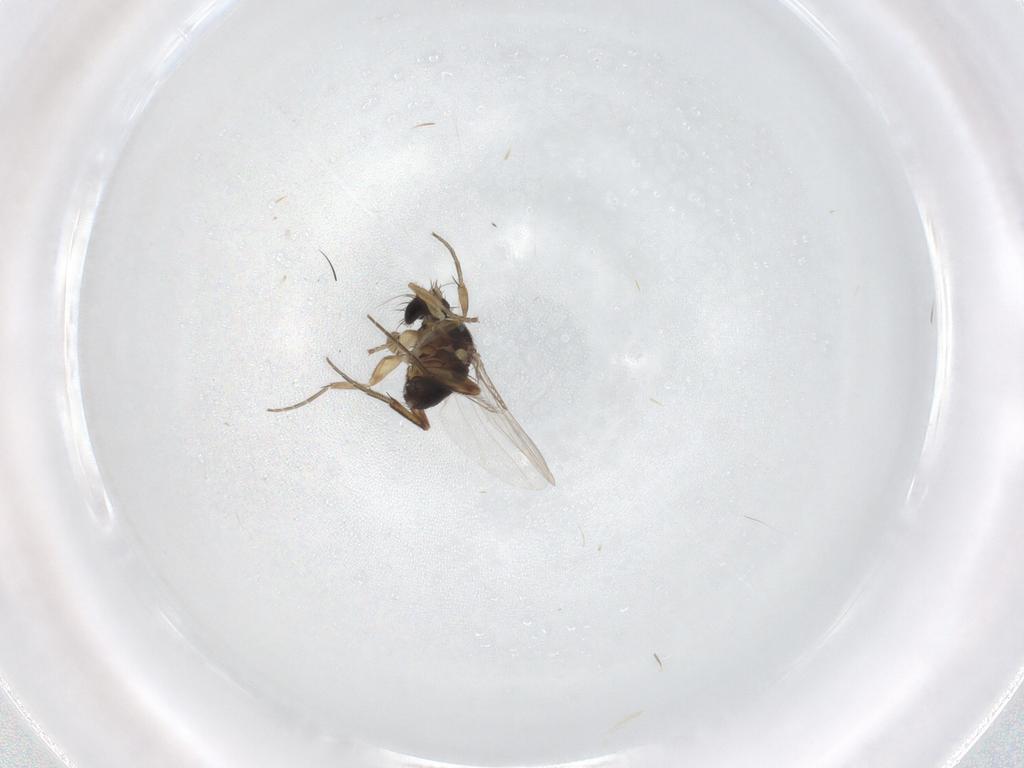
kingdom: Animalia
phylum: Arthropoda
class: Insecta
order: Diptera
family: Phoridae
